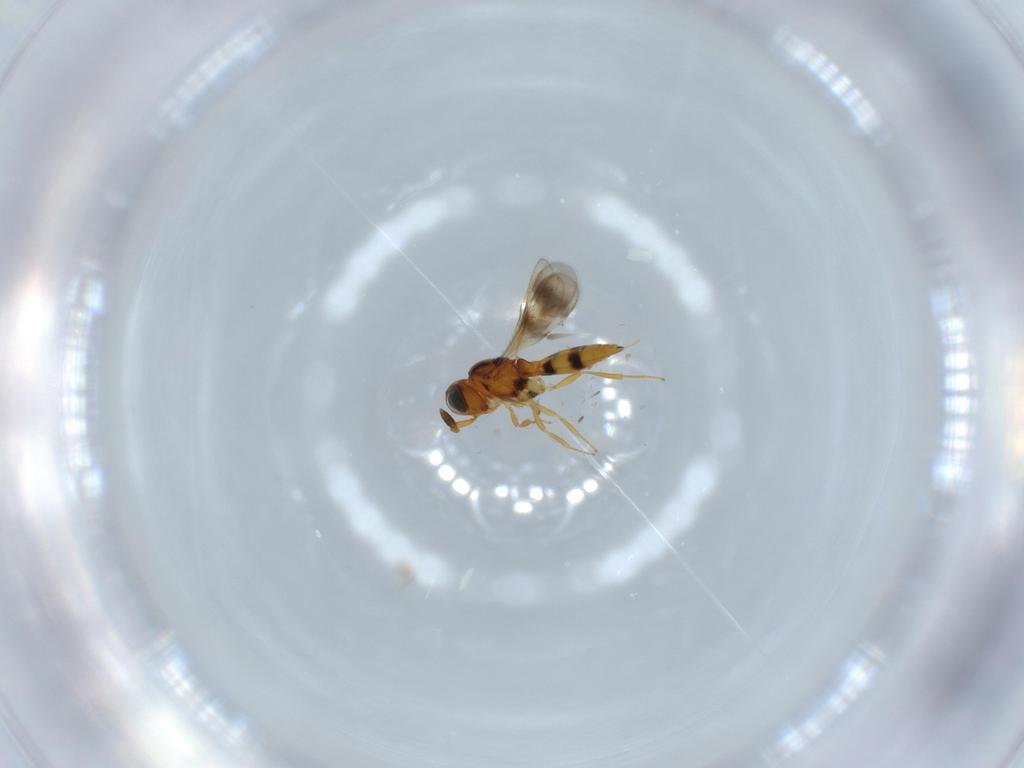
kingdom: Animalia
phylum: Arthropoda
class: Insecta
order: Hymenoptera
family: Scelionidae
